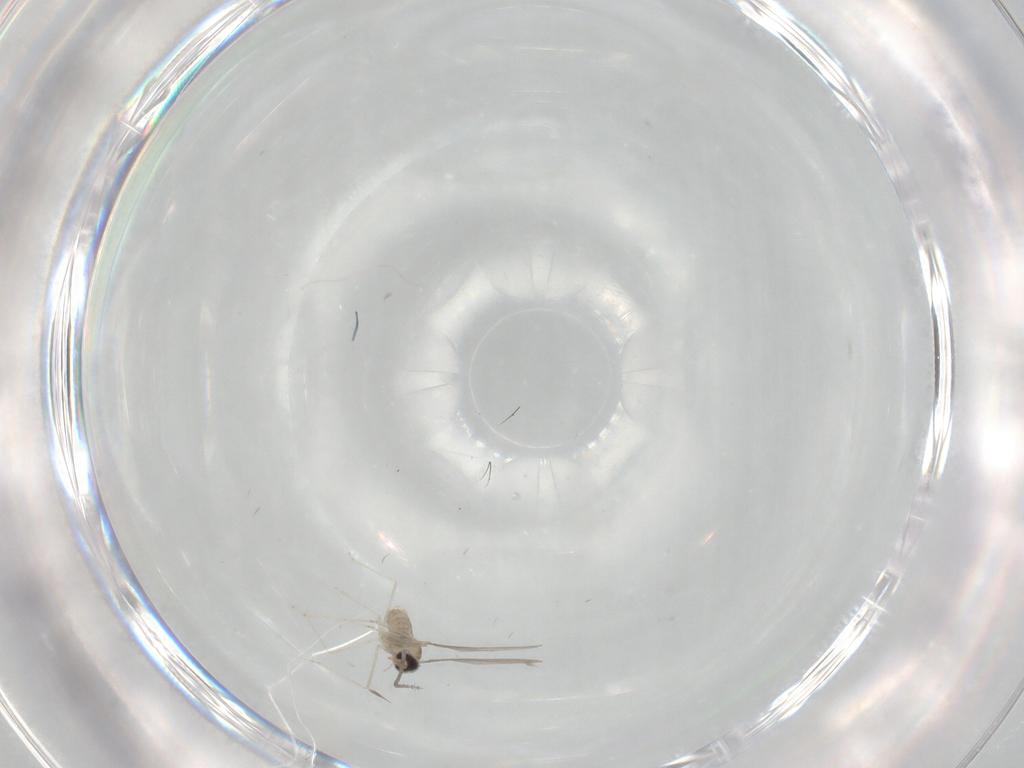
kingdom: Animalia
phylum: Arthropoda
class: Insecta
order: Diptera
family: Cecidomyiidae
